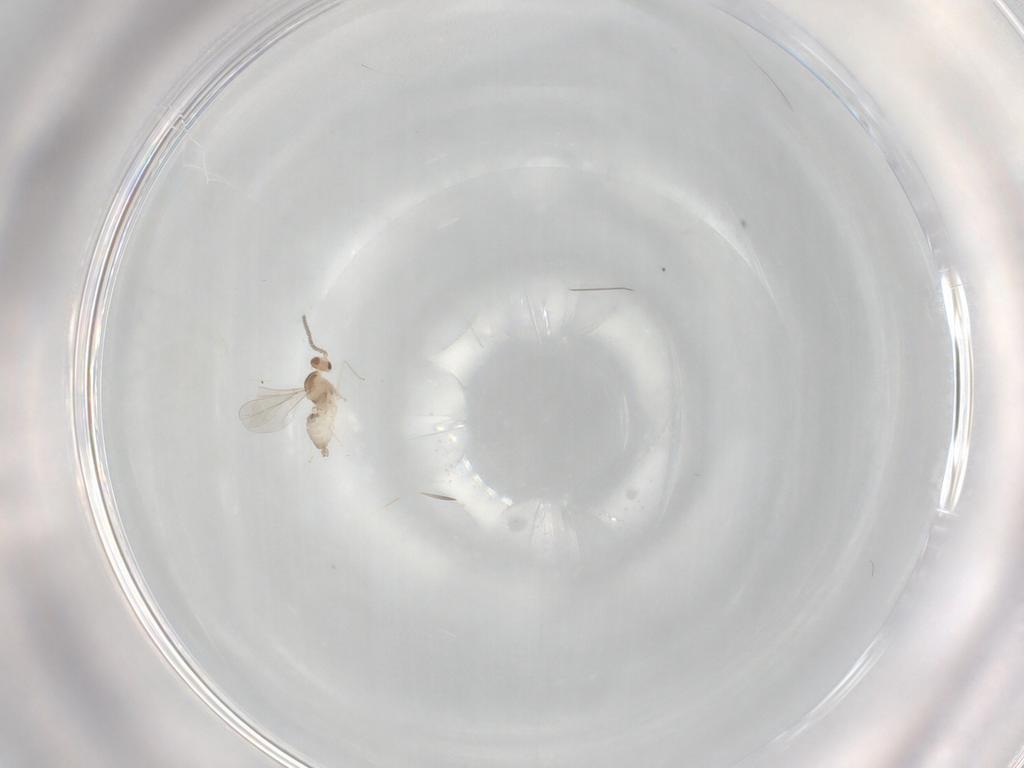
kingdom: Animalia
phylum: Arthropoda
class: Insecta
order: Diptera
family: Cecidomyiidae
